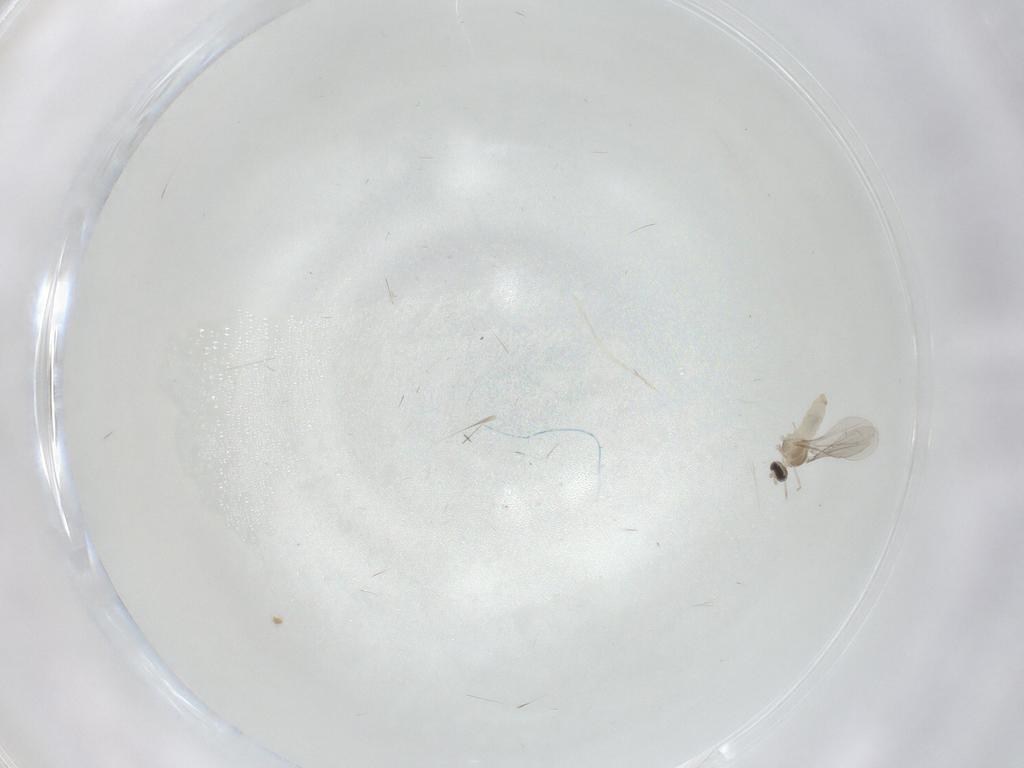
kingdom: Animalia
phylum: Arthropoda
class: Insecta
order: Diptera
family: Cecidomyiidae
